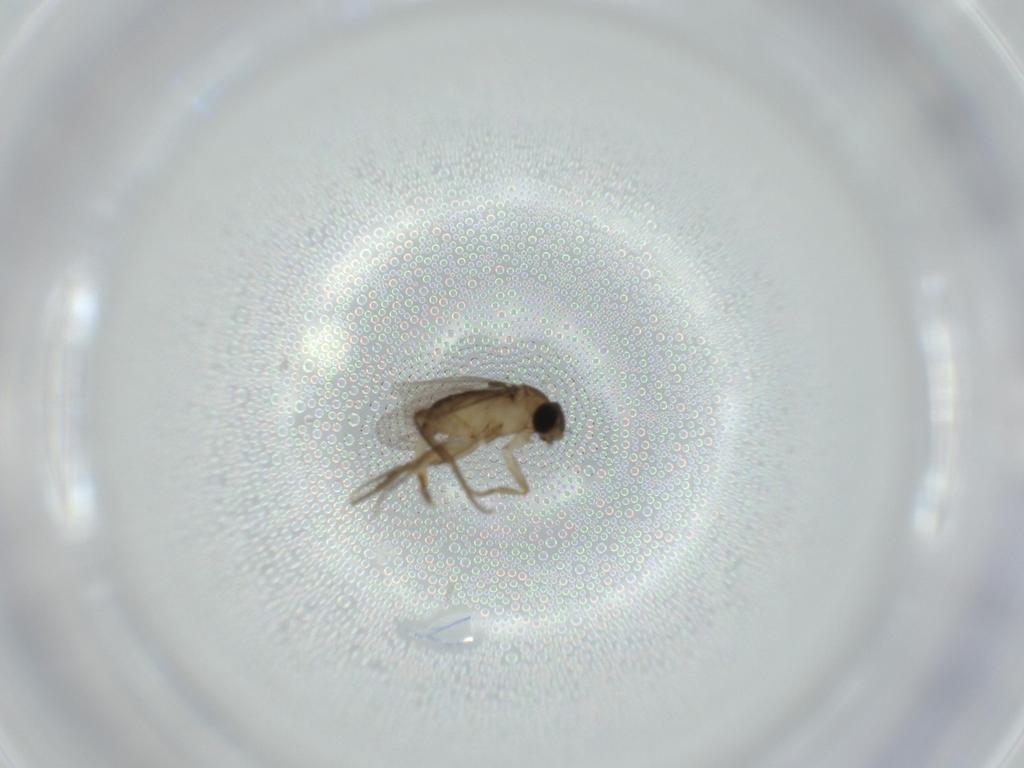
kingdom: Animalia
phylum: Arthropoda
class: Insecta
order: Diptera
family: Phoridae
